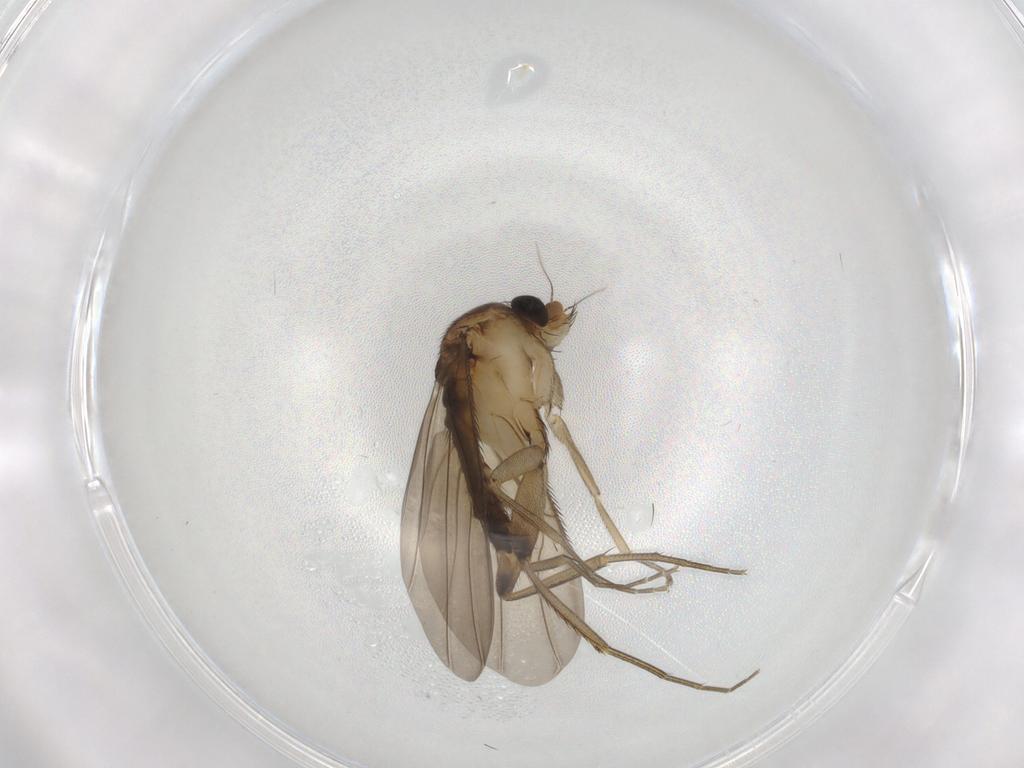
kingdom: Animalia
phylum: Arthropoda
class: Insecta
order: Diptera
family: Phoridae
